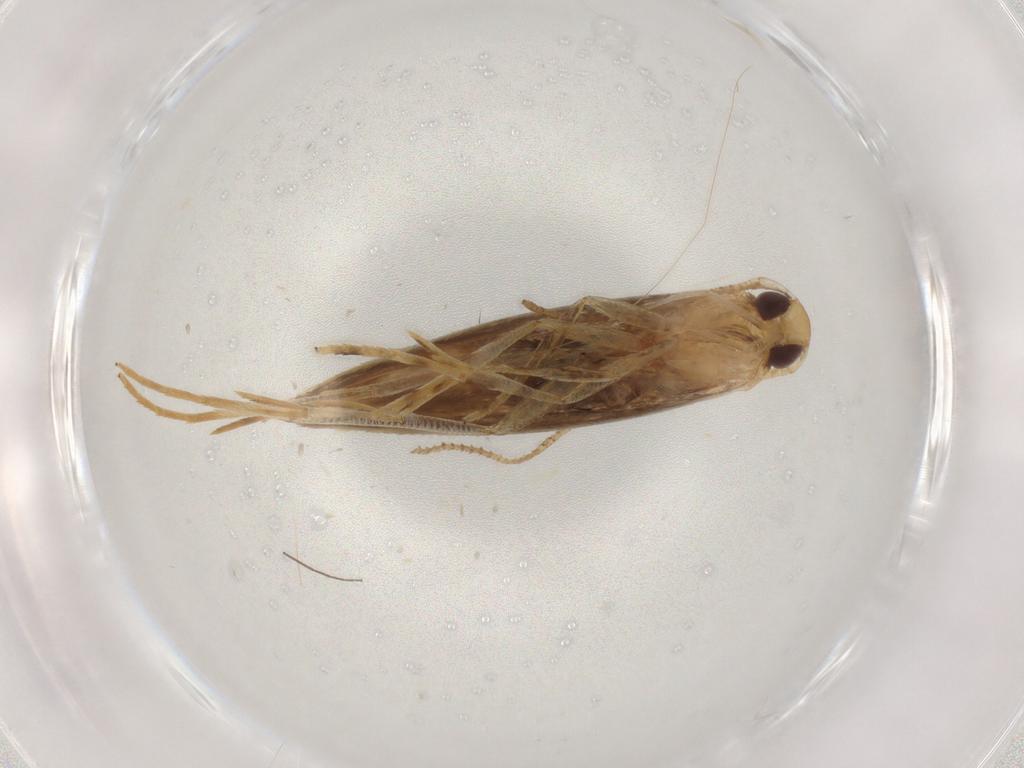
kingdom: Animalia
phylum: Arthropoda
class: Insecta
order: Lepidoptera
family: Cosmopterigidae
